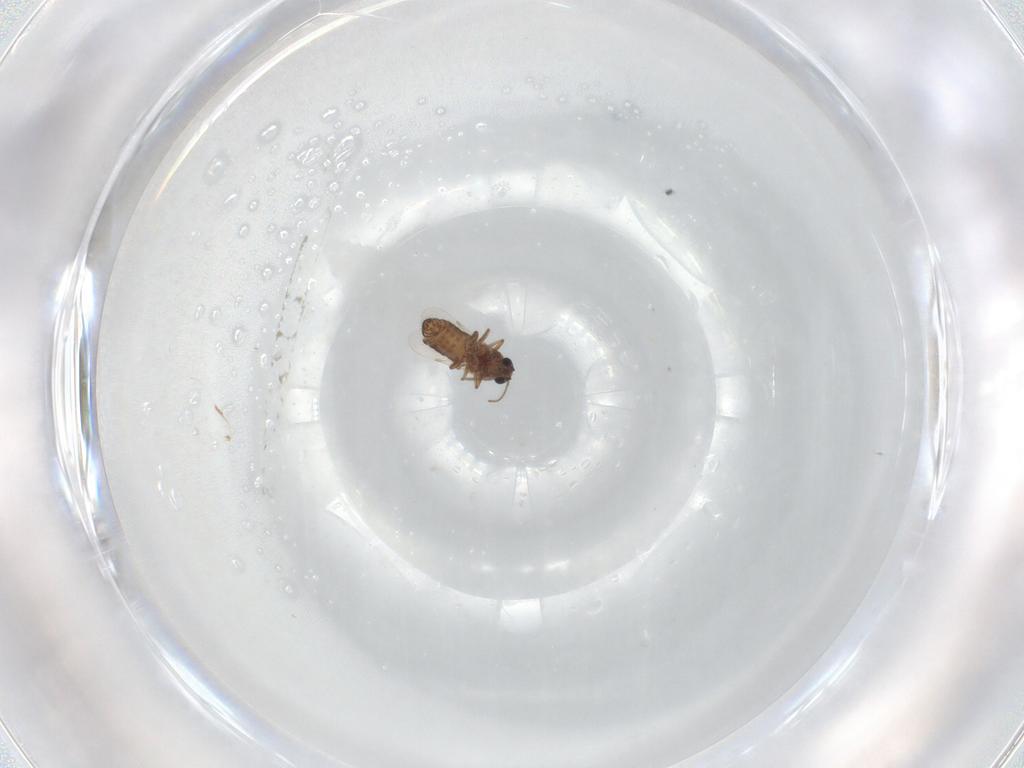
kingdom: Animalia
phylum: Arthropoda
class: Insecta
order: Diptera
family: Ceratopogonidae
